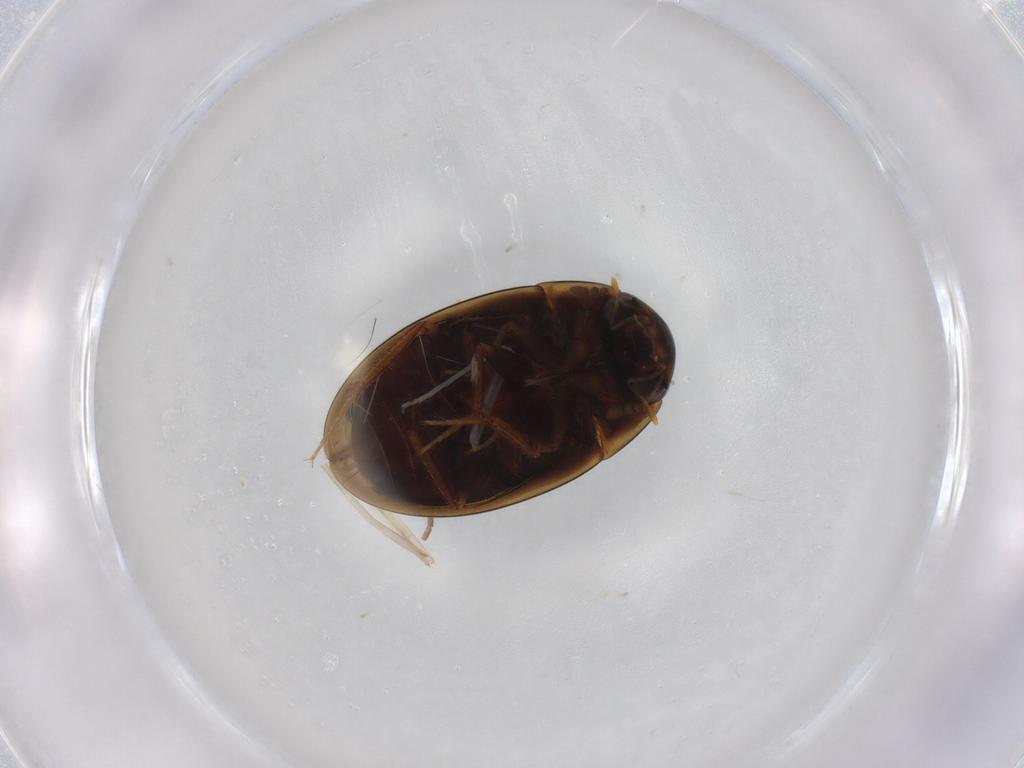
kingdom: Animalia
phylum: Arthropoda
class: Insecta
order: Coleoptera
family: Hydrophilidae
